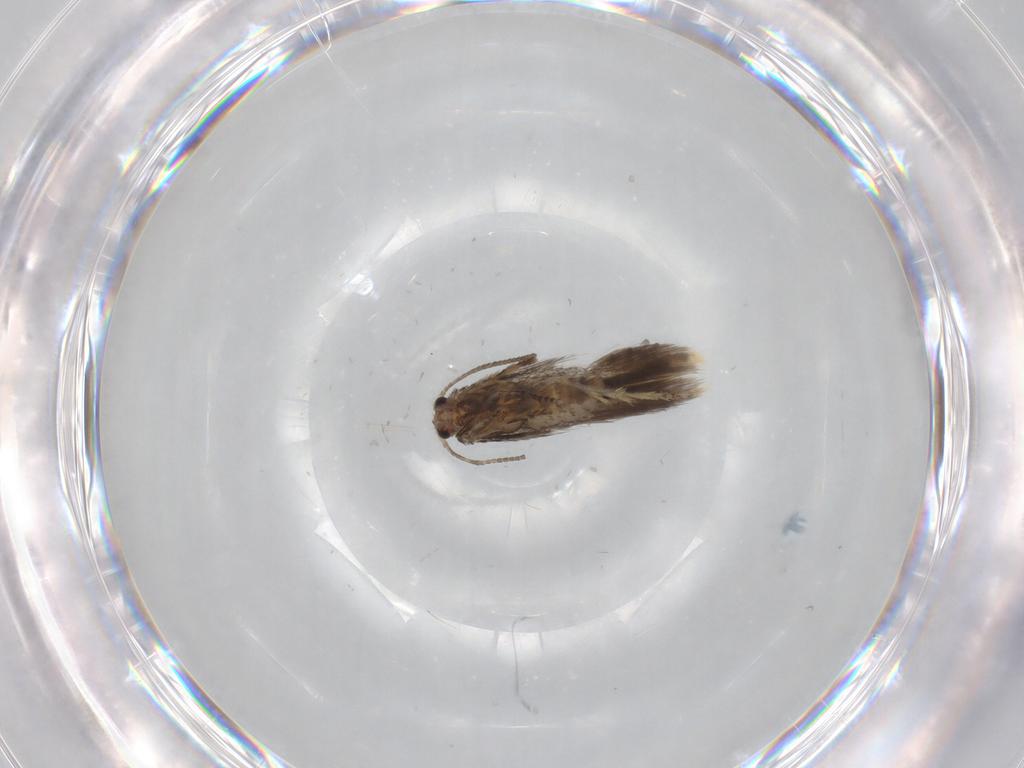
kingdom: Animalia
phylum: Arthropoda
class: Insecta
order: Lepidoptera
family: Nepticulidae
